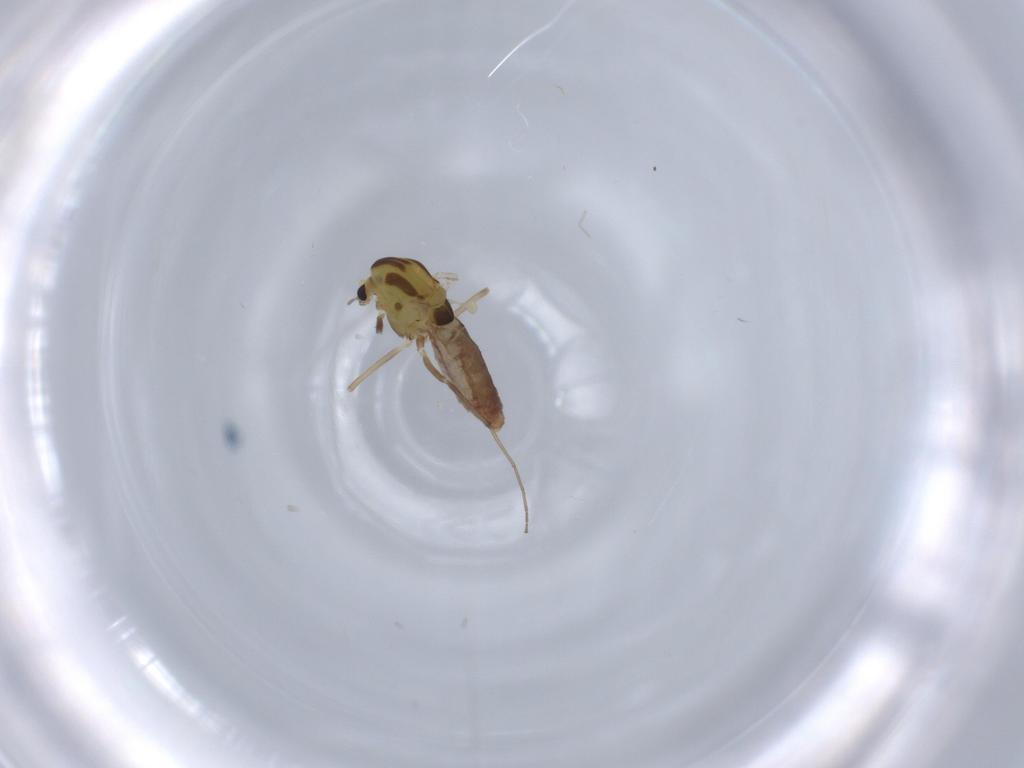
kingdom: Animalia
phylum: Arthropoda
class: Insecta
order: Diptera
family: Chironomidae
